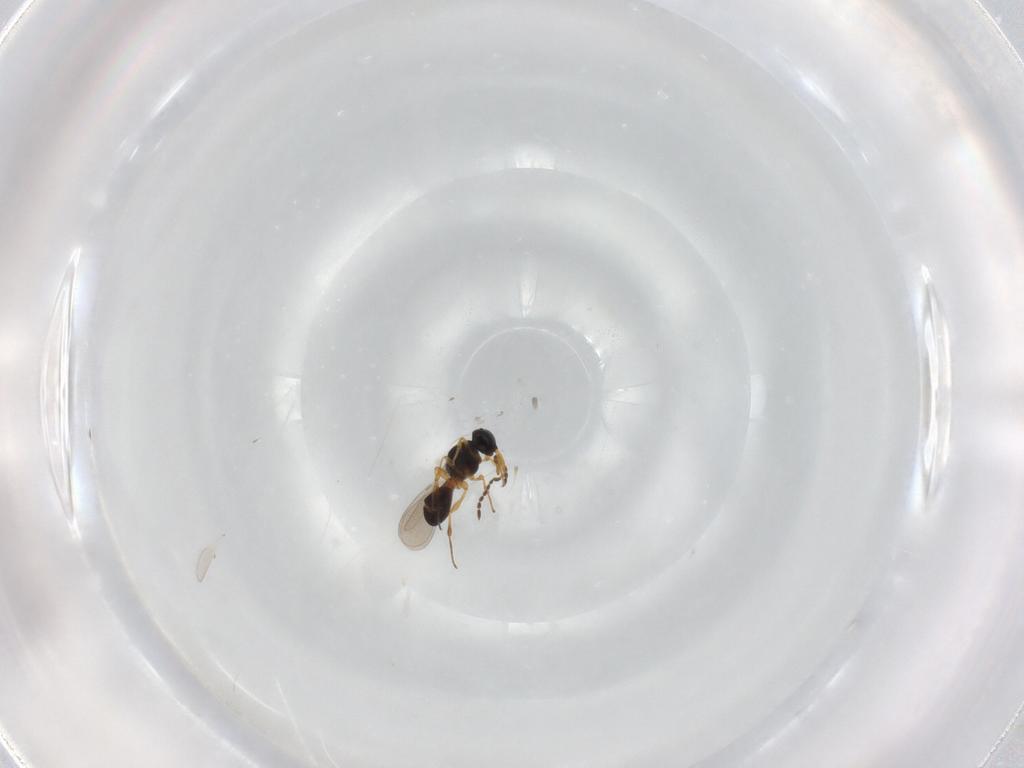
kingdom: Animalia
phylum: Arthropoda
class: Insecta
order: Hymenoptera
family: Platygastridae
